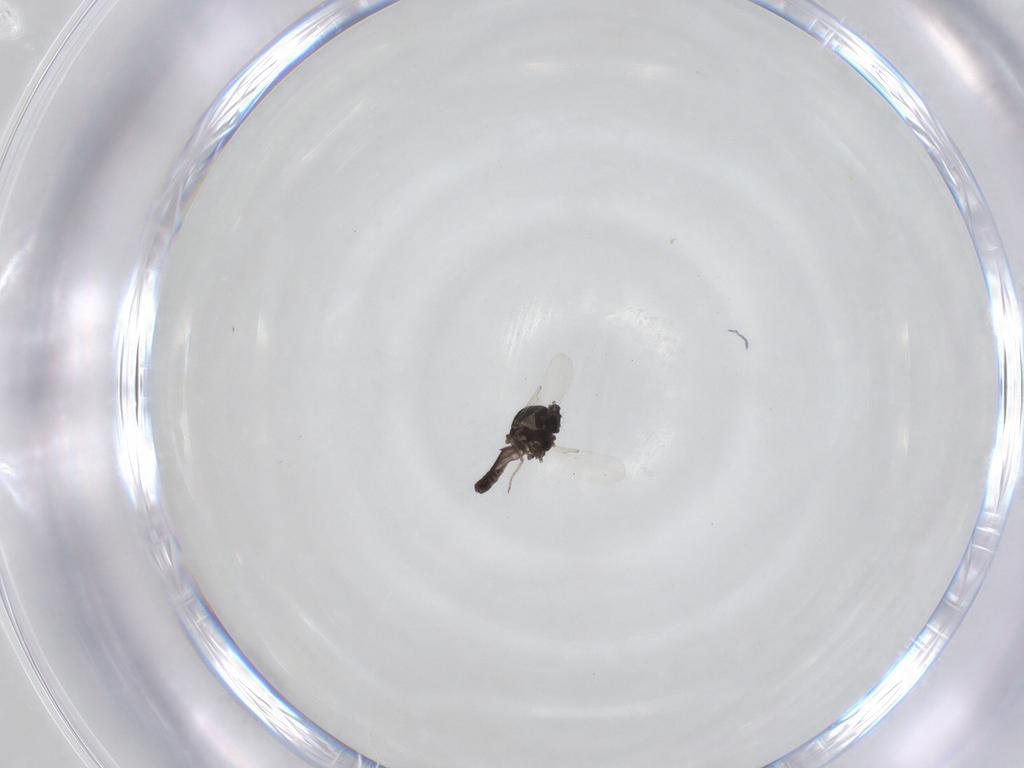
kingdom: Animalia
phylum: Arthropoda
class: Insecta
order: Diptera
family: Ceratopogonidae
